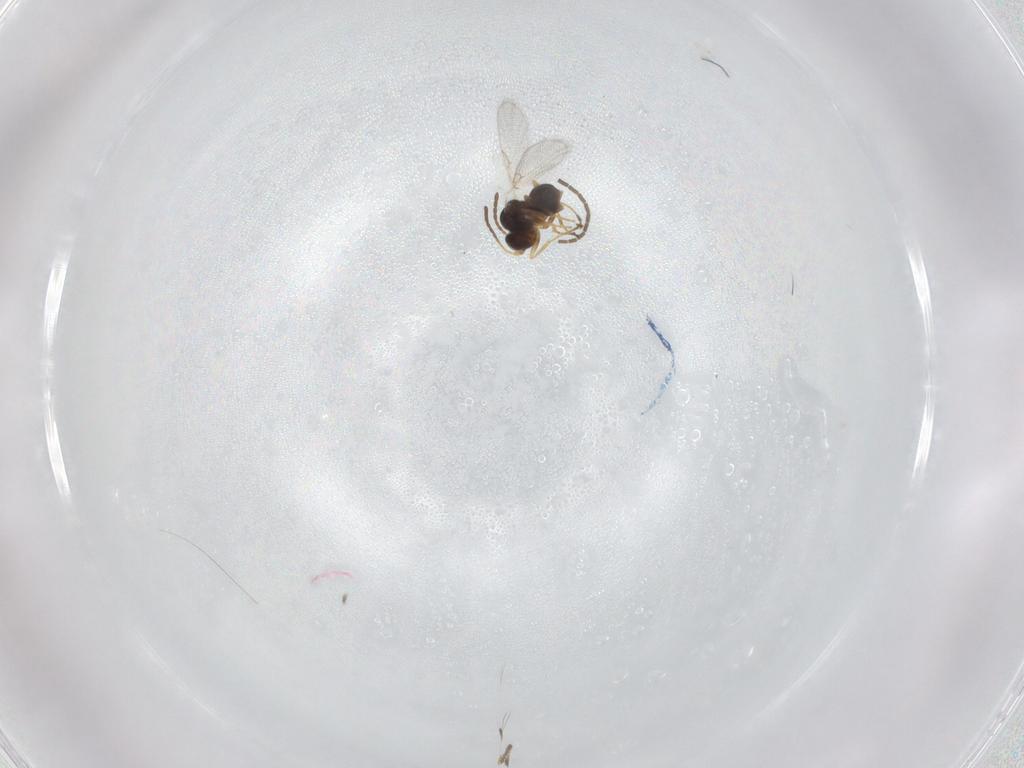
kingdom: Animalia
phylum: Arthropoda
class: Insecta
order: Hymenoptera
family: Figitidae
